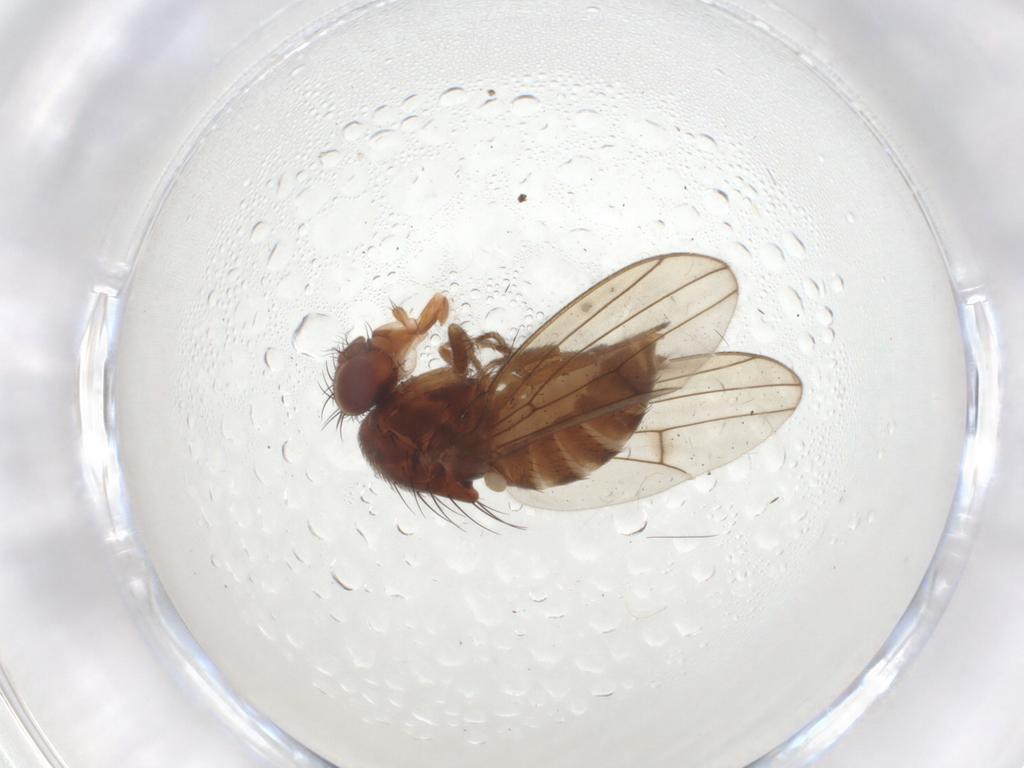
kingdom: Animalia
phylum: Arthropoda
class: Insecta
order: Diptera
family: Drosophilidae
